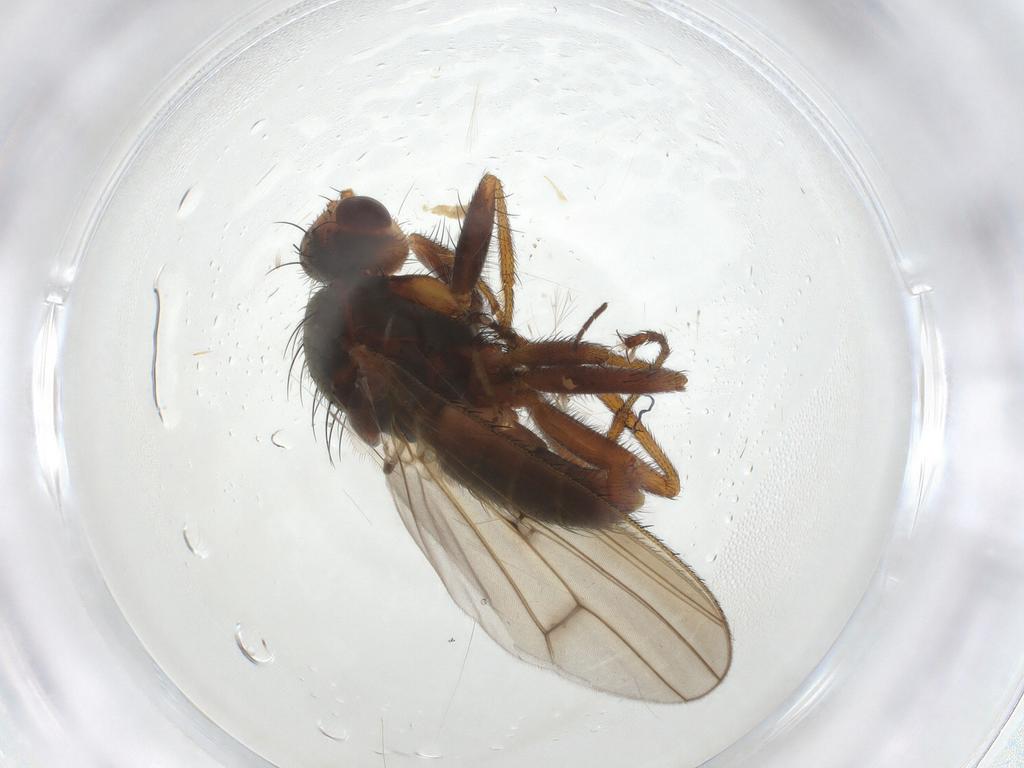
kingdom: Animalia
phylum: Arthropoda
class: Insecta
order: Diptera
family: Heleomyzidae
